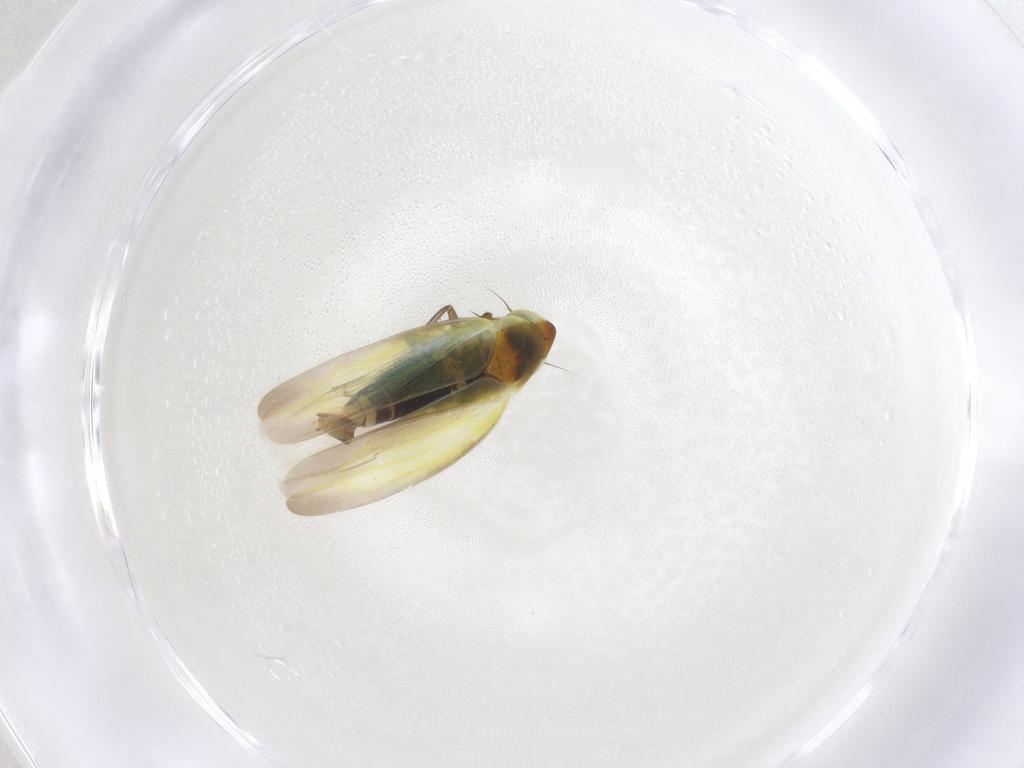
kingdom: Animalia
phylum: Arthropoda
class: Insecta
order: Hemiptera
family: Cicadellidae
